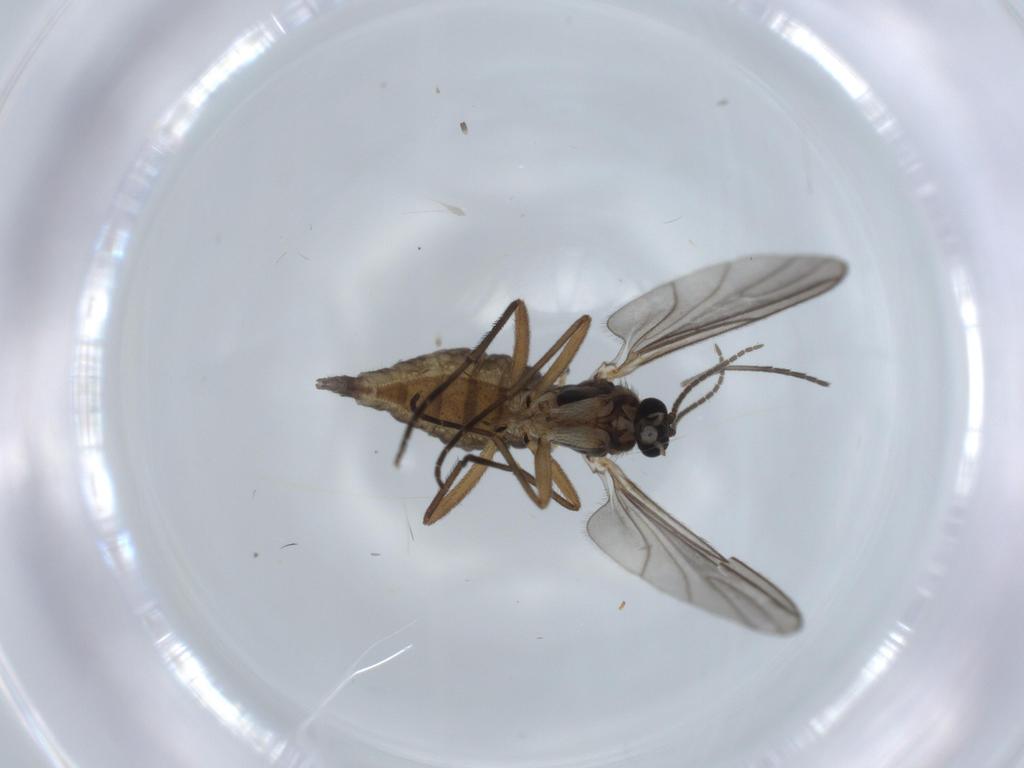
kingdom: Animalia
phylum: Arthropoda
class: Insecta
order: Diptera
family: Sciaridae
